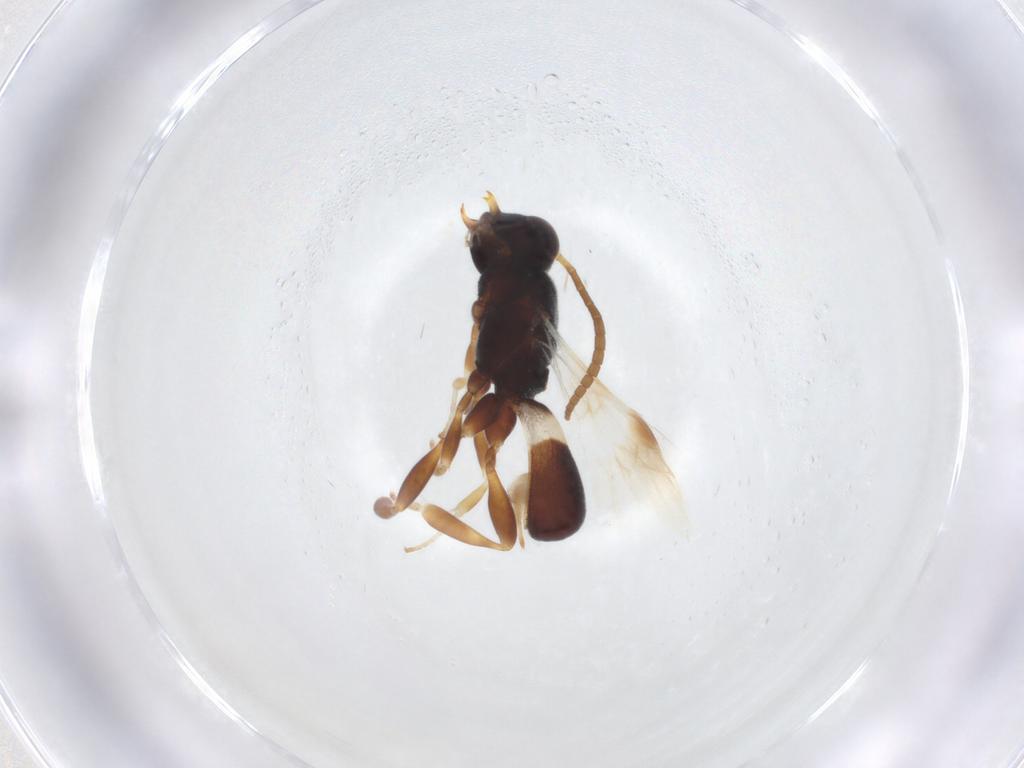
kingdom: Animalia
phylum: Arthropoda
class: Insecta
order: Hymenoptera
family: Braconidae
